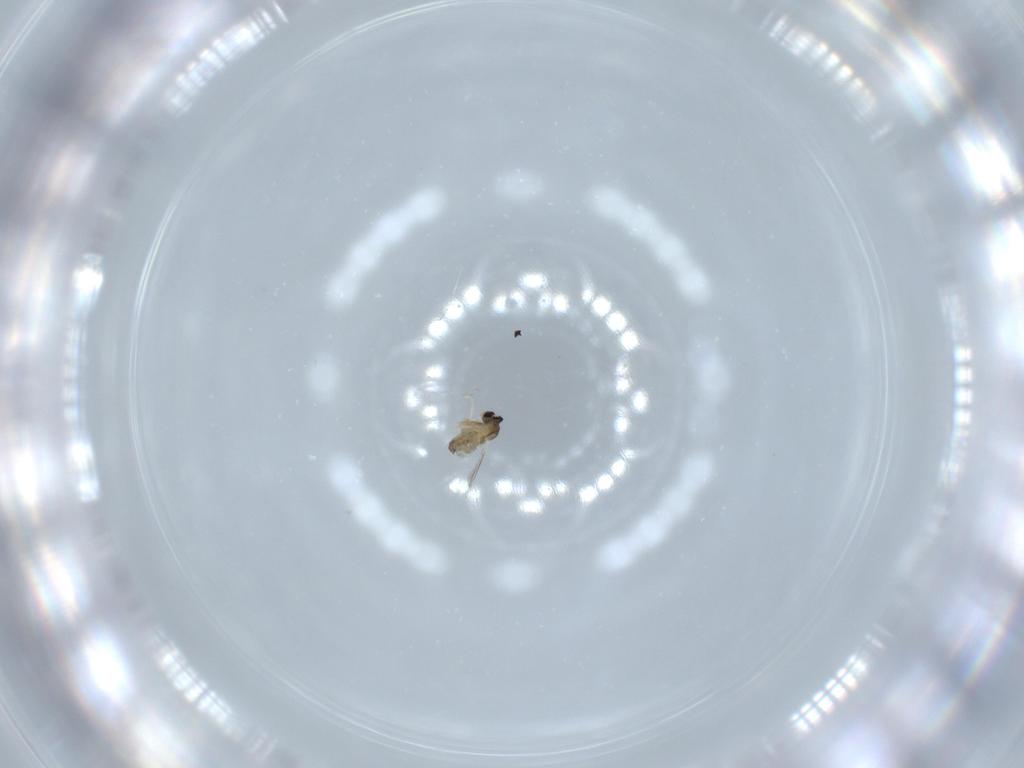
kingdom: Animalia
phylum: Arthropoda
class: Insecta
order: Diptera
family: Cecidomyiidae
